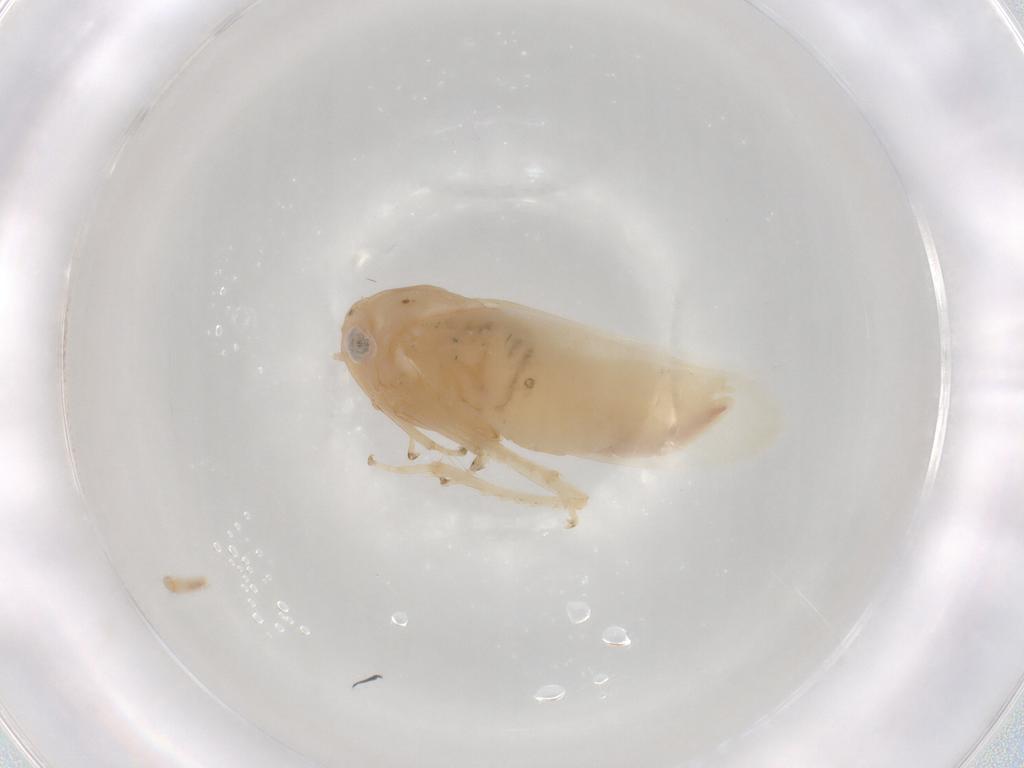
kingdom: Animalia
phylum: Arthropoda
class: Insecta
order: Hemiptera
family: Cicadellidae
